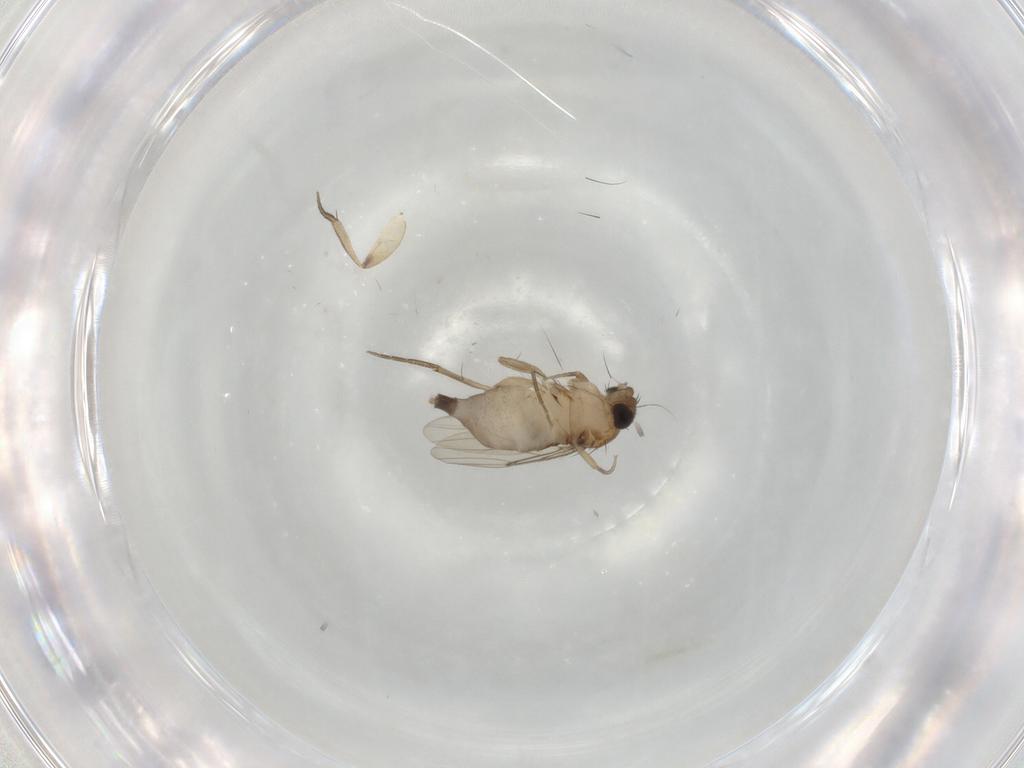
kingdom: Animalia
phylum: Arthropoda
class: Insecta
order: Diptera
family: Phoridae
